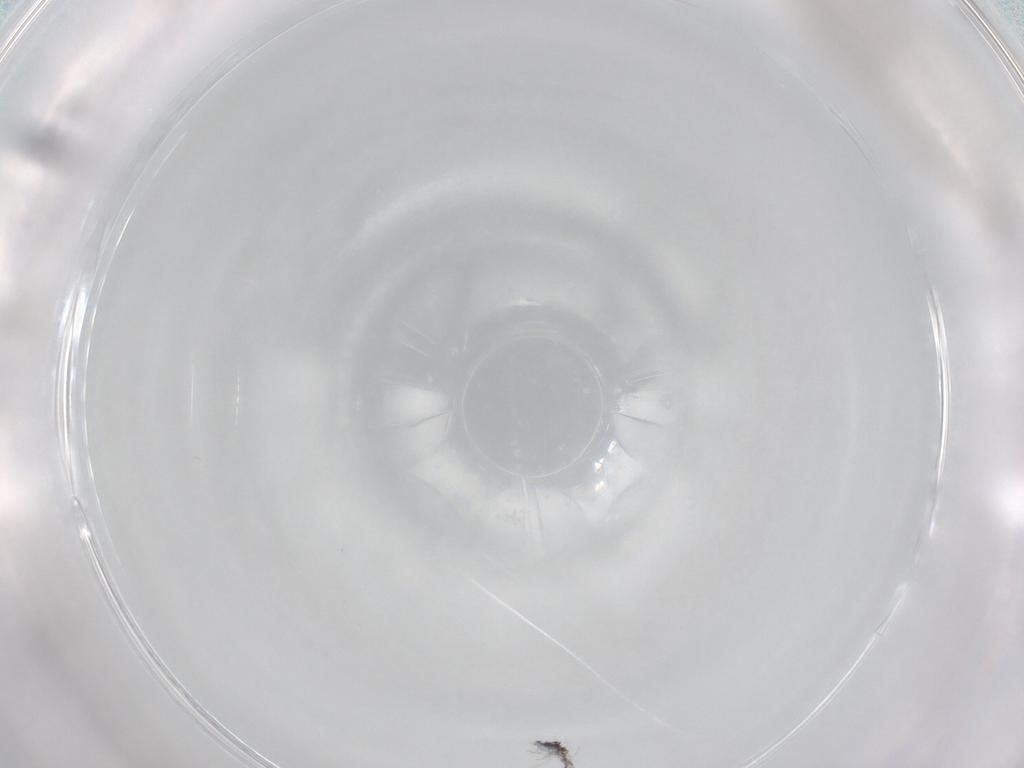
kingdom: Animalia
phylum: Arthropoda
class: Collembola
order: Entomobryomorpha
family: Entomobryidae
